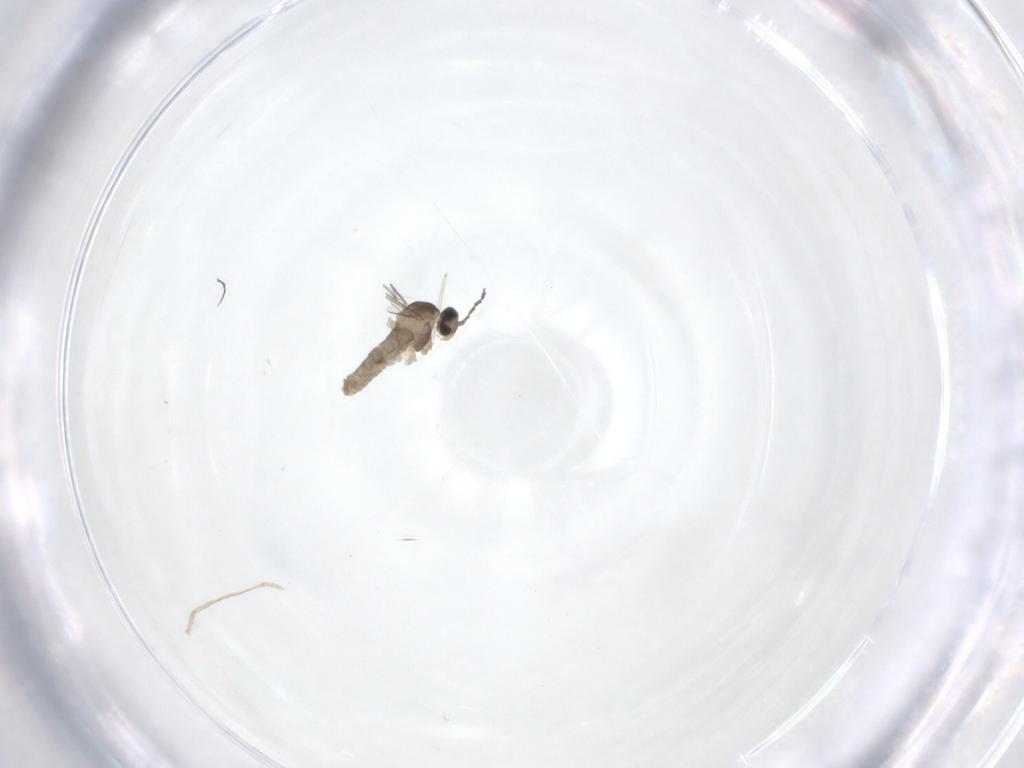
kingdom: Animalia
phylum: Arthropoda
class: Insecta
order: Diptera
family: Cecidomyiidae
